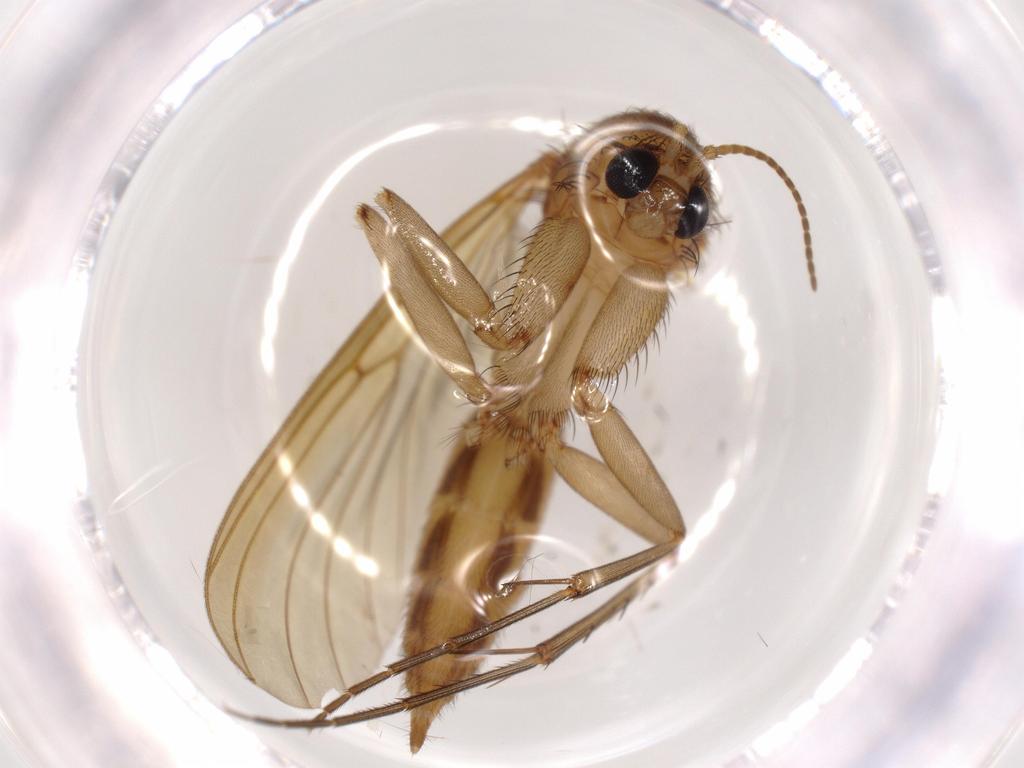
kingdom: Animalia
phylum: Arthropoda
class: Insecta
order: Diptera
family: Mycetophilidae
